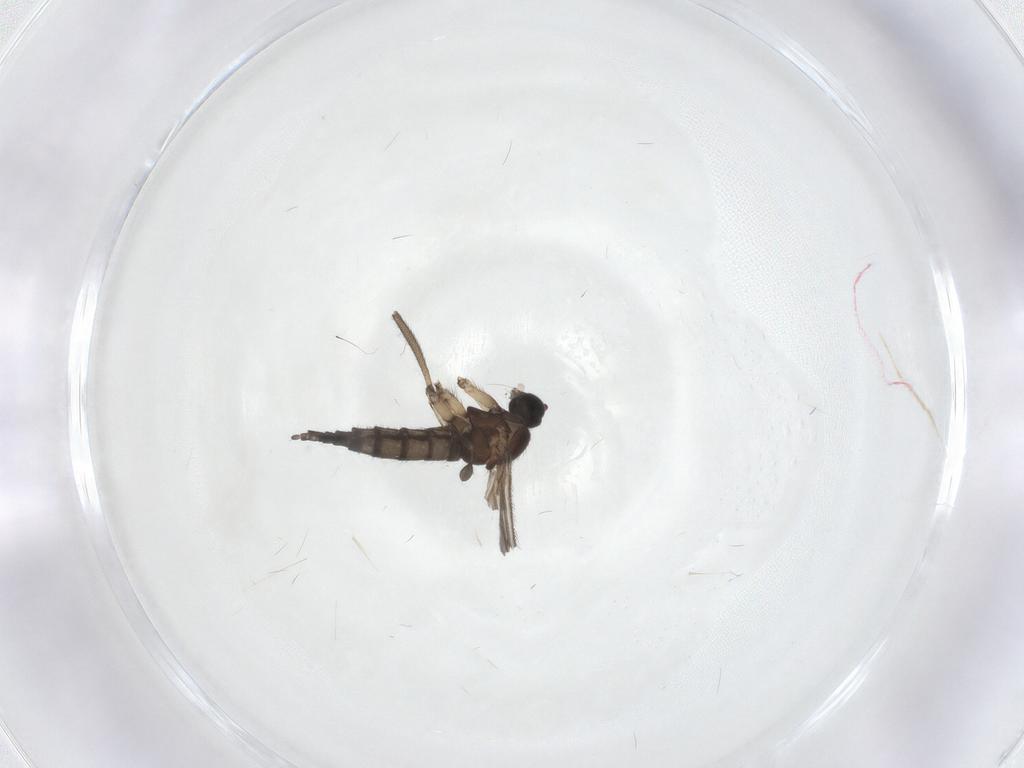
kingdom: Animalia
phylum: Arthropoda
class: Insecta
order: Diptera
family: Sciaridae
